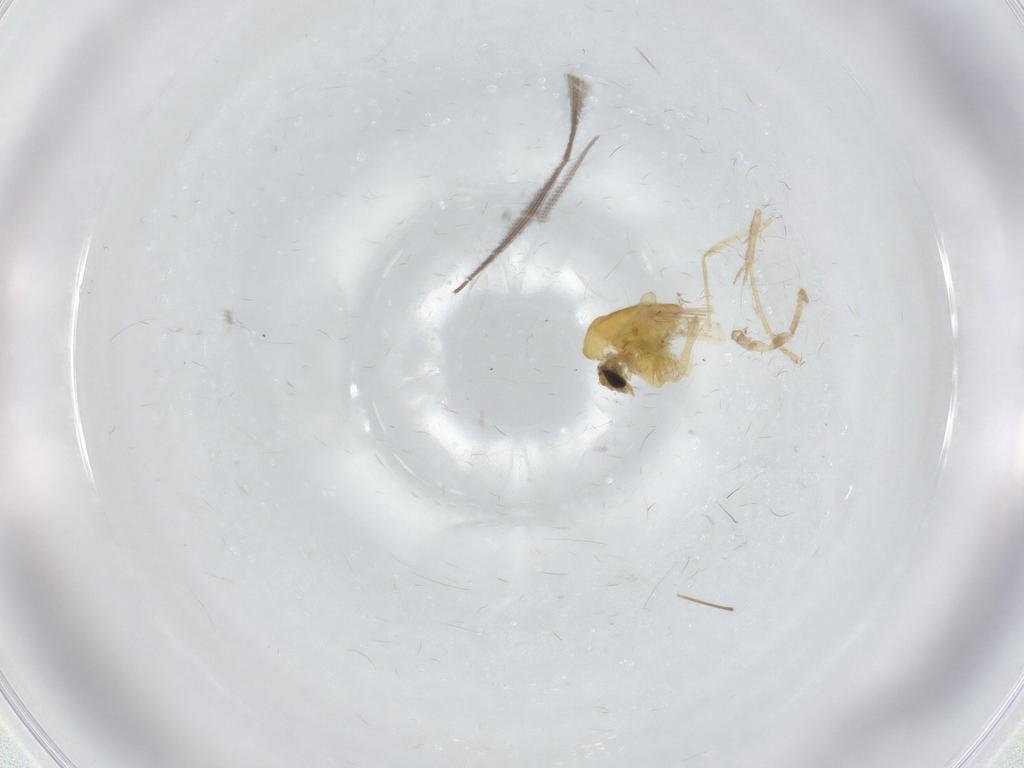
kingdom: Animalia
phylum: Arthropoda
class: Insecta
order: Diptera
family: Chironomidae
